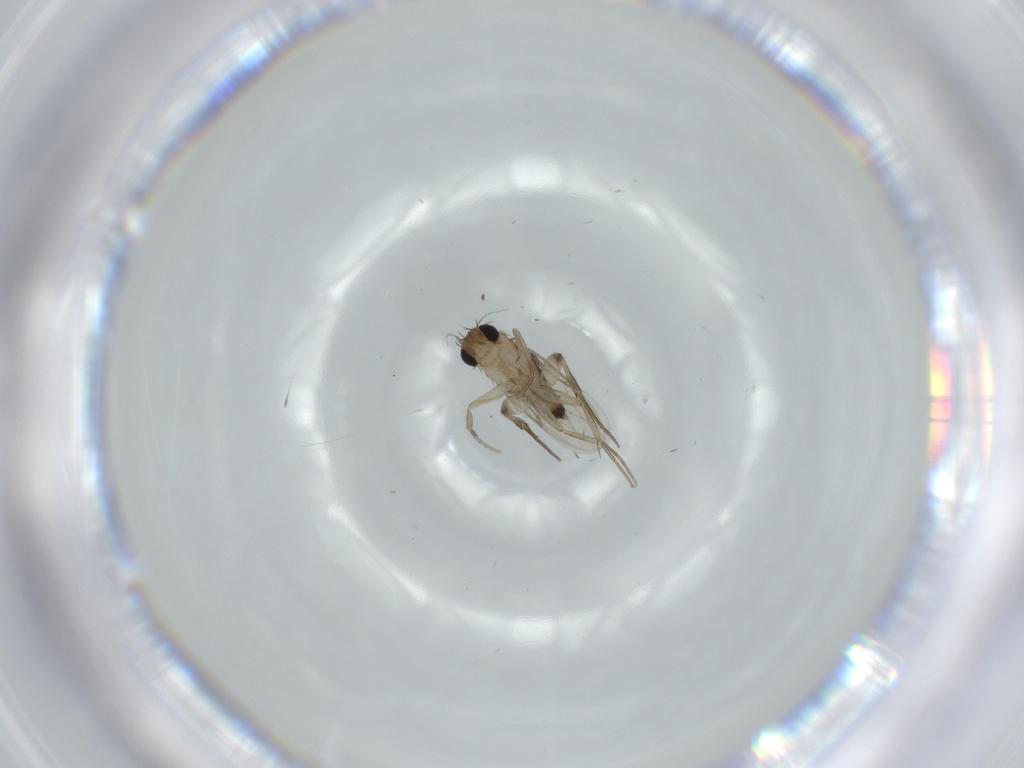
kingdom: Animalia
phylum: Arthropoda
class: Insecta
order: Diptera
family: Phoridae
